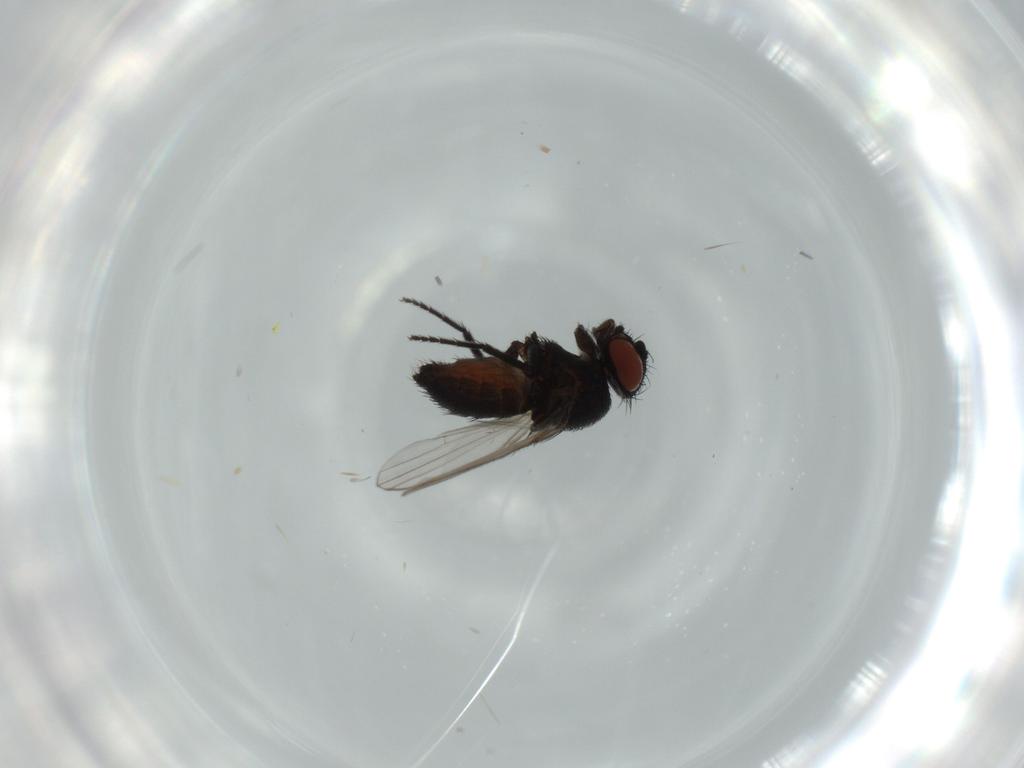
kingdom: Animalia
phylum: Arthropoda
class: Insecta
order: Diptera
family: Milichiidae
